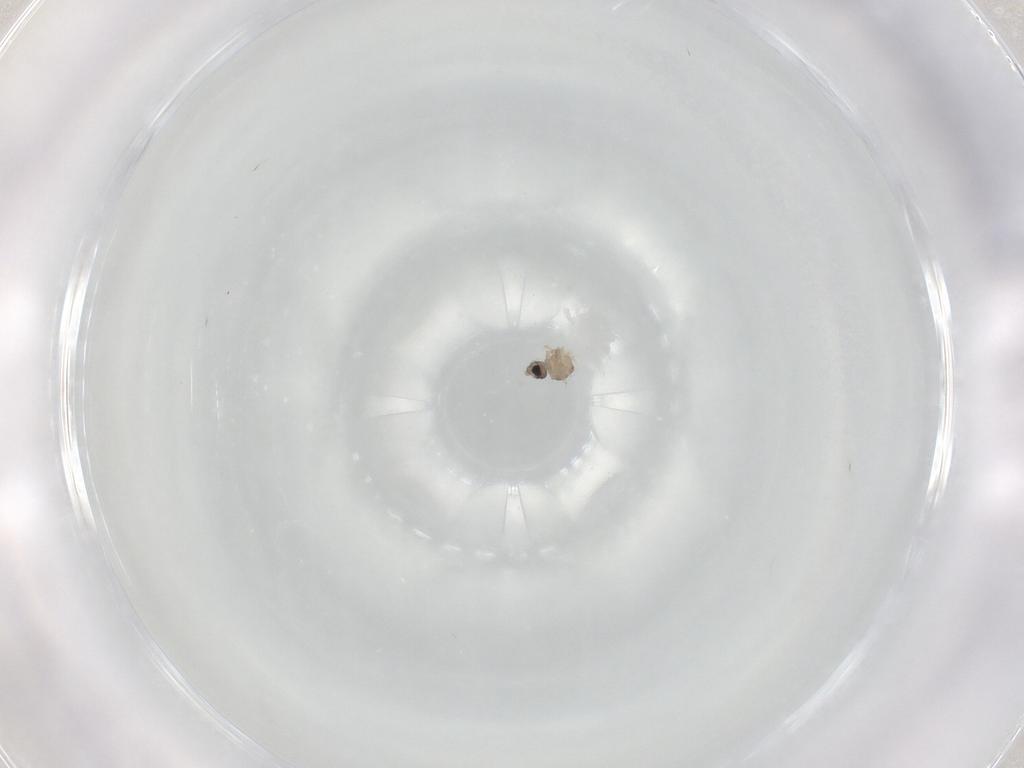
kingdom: Animalia
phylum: Arthropoda
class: Insecta
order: Diptera
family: Cecidomyiidae
